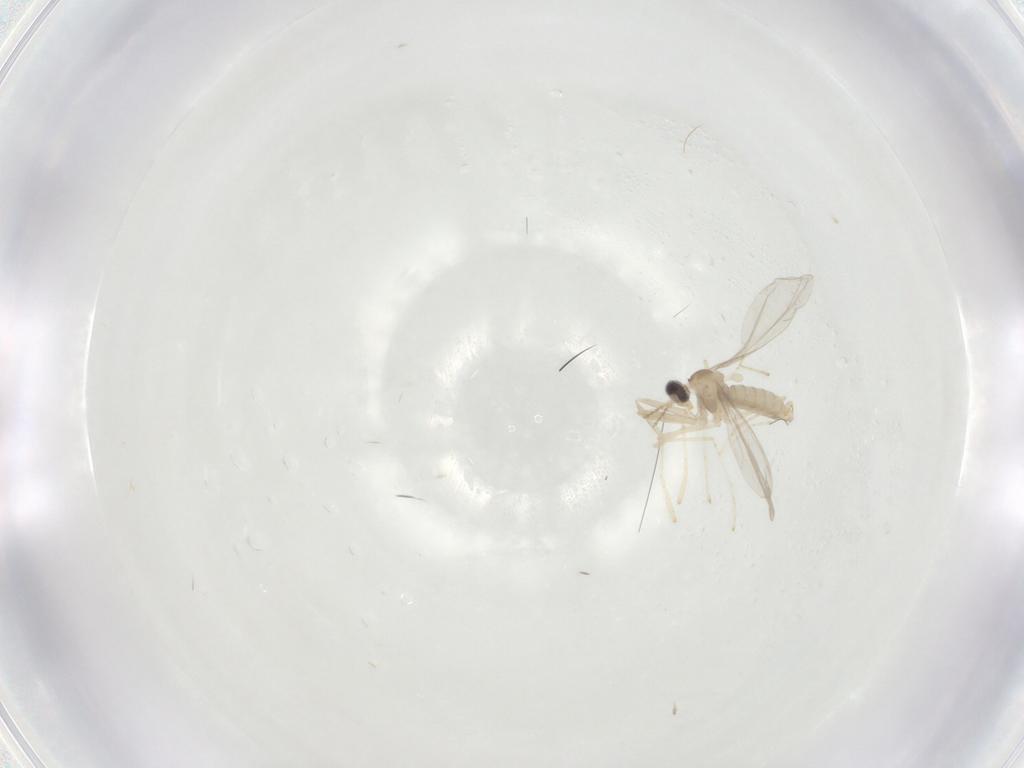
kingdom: Animalia
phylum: Arthropoda
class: Insecta
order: Diptera
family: Cecidomyiidae
